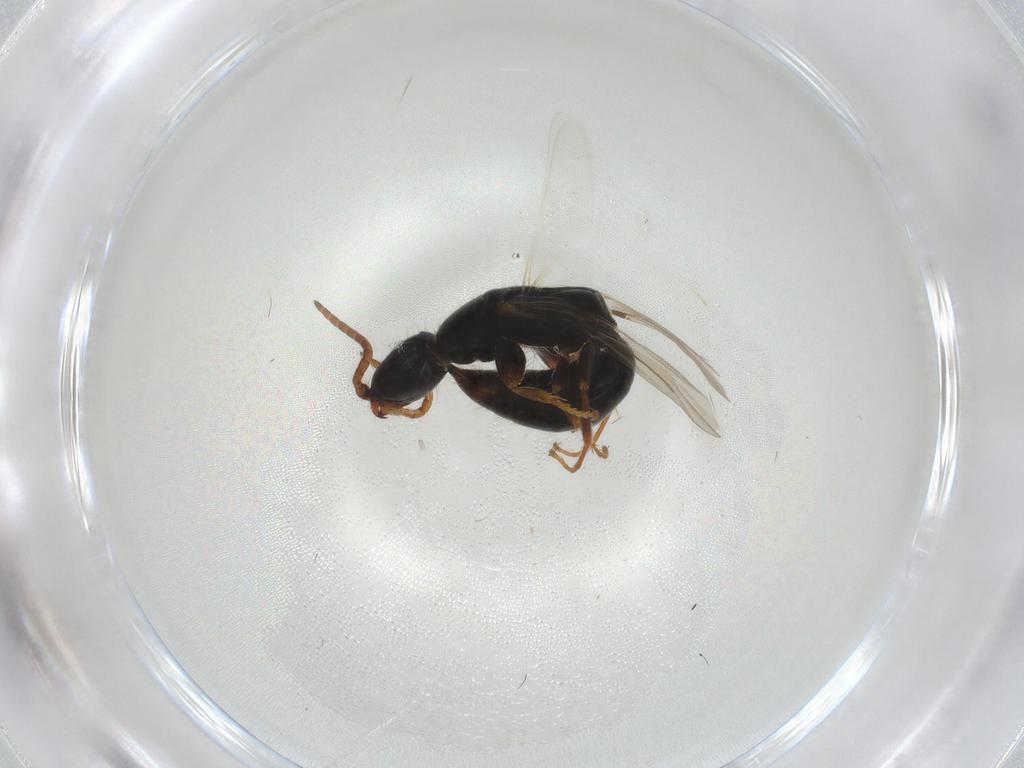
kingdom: Animalia
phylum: Arthropoda
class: Insecta
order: Hymenoptera
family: Bethylidae
